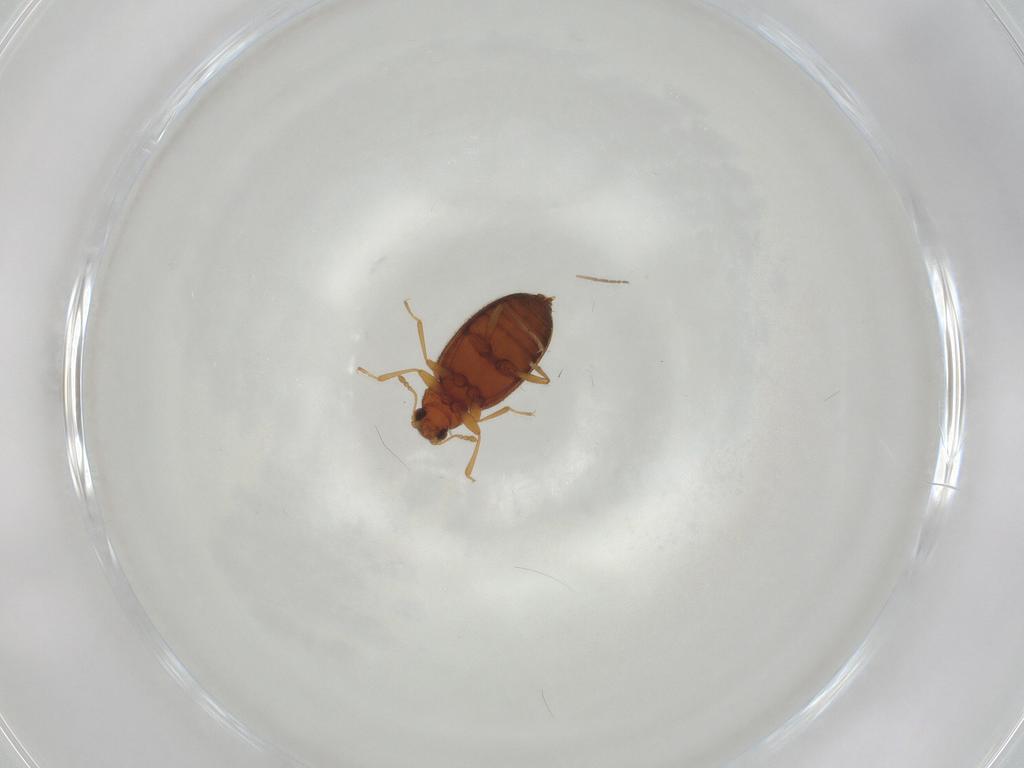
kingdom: Animalia
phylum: Arthropoda
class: Insecta
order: Coleoptera
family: Latridiidae
